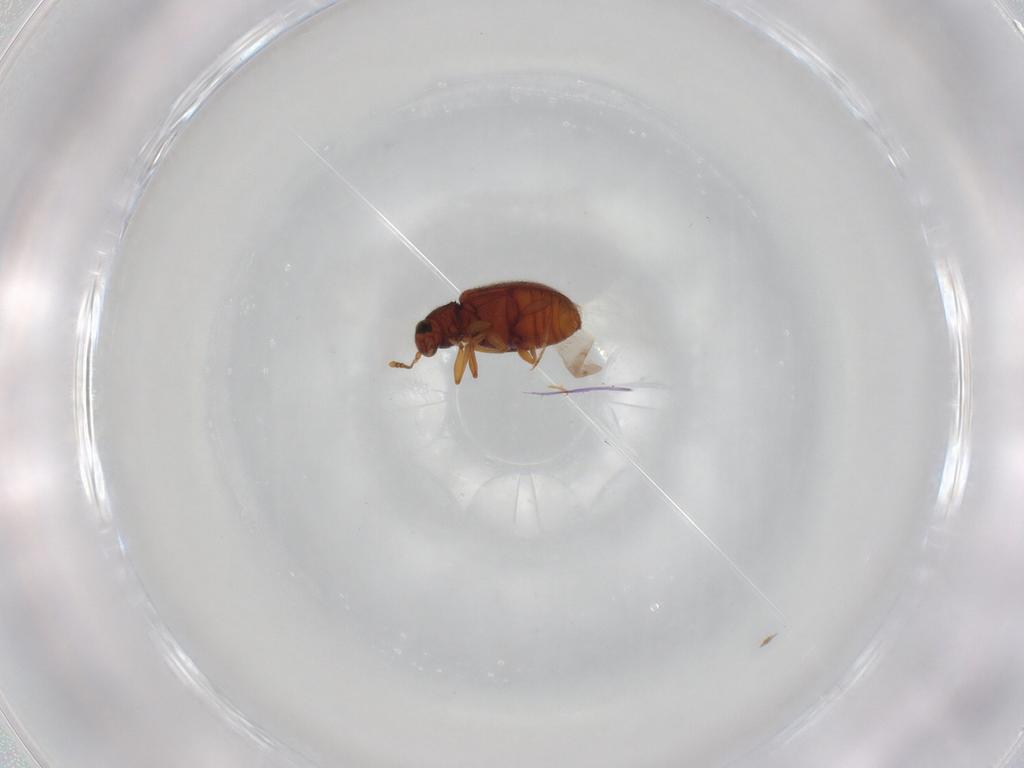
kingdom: Animalia
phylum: Arthropoda
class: Insecta
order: Coleoptera
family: Latridiidae
